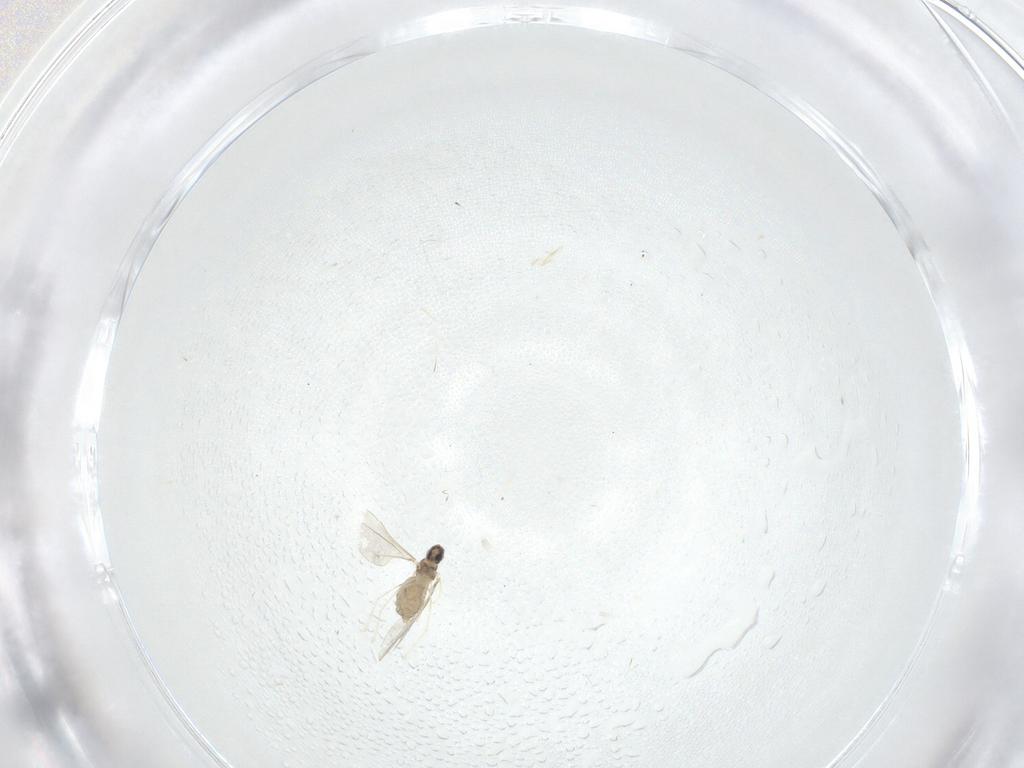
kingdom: Animalia
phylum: Arthropoda
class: Insecta
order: Diptera
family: Cecidomyiidae
